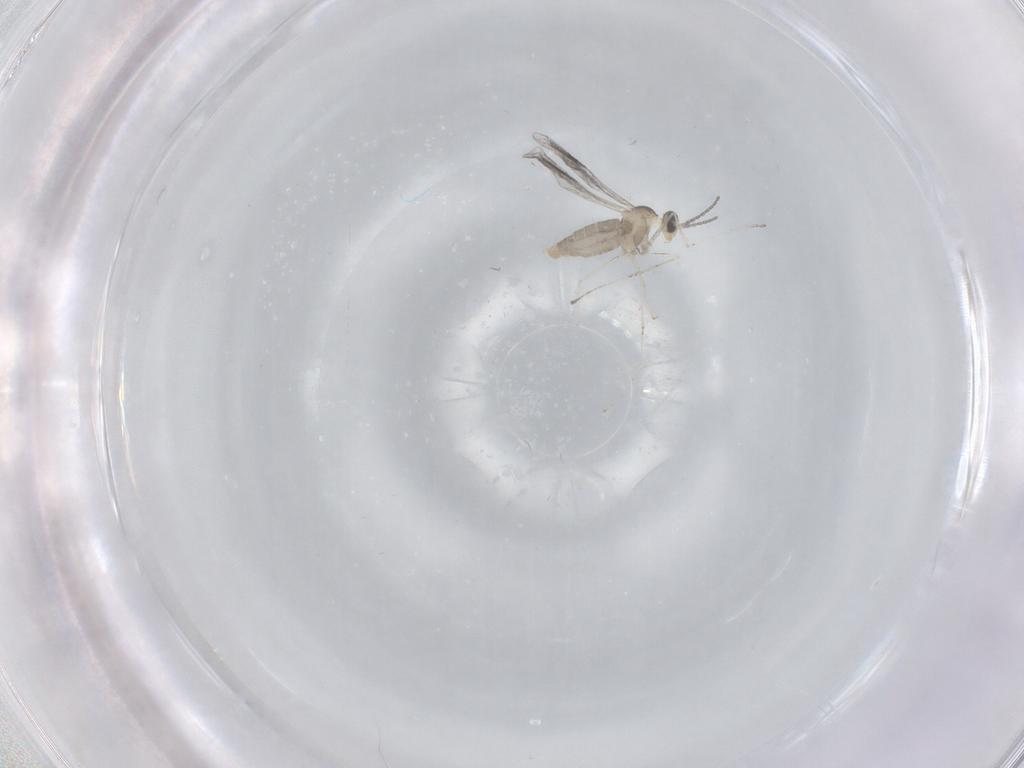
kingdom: Animalia
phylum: Arthropoda
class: Insecta
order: Diptera
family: Cecidomyiidae
